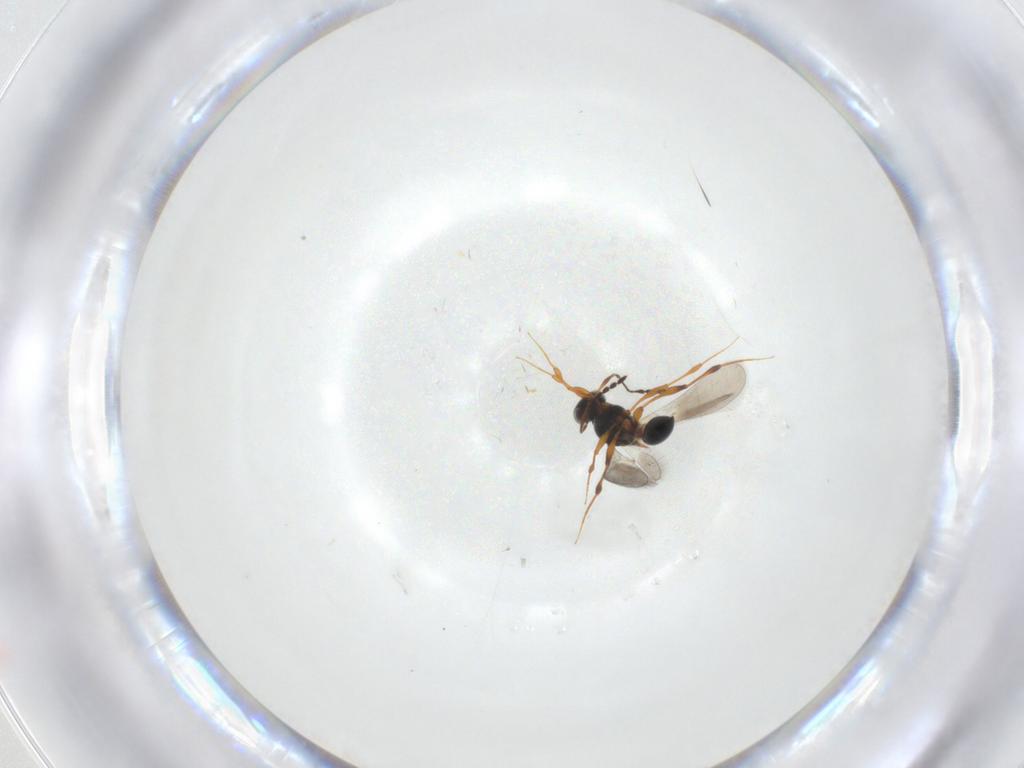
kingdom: Animalia
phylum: Arthropoda
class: Insecta
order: Hymenoptera
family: Platygastridae
